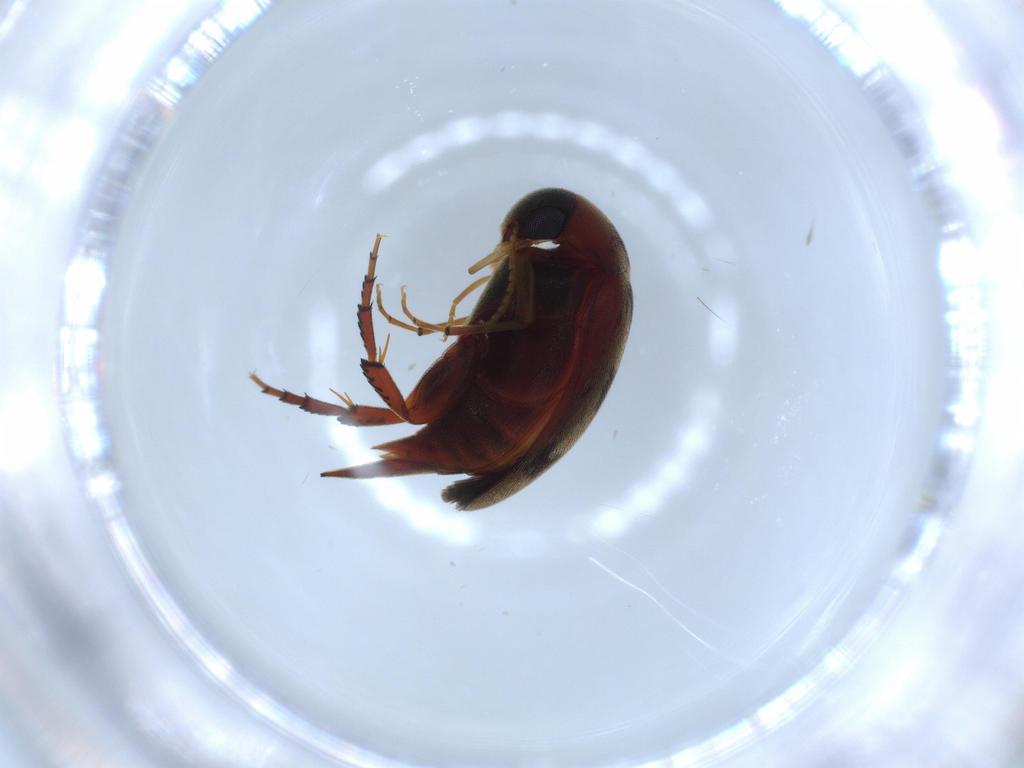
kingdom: Animalia
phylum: Arthropoda
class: Insecta
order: Coleoptera
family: Mordellidae
